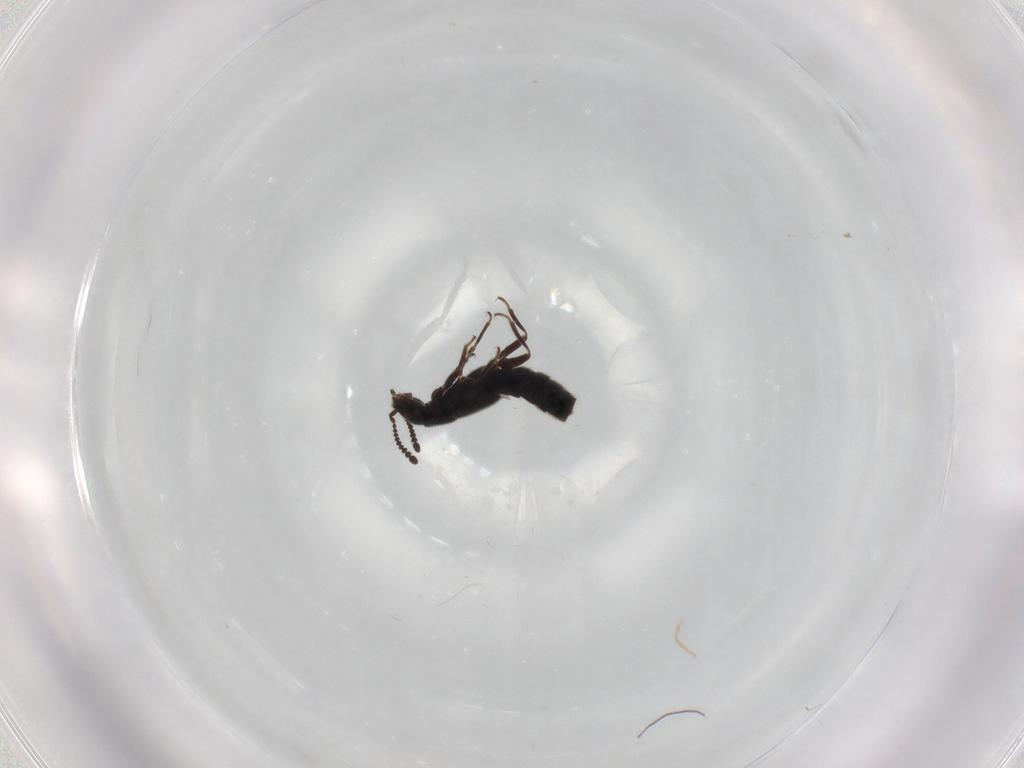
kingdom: Animalia
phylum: Arthropoda
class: Insecta
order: Coleoptera
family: Staphylinidae
